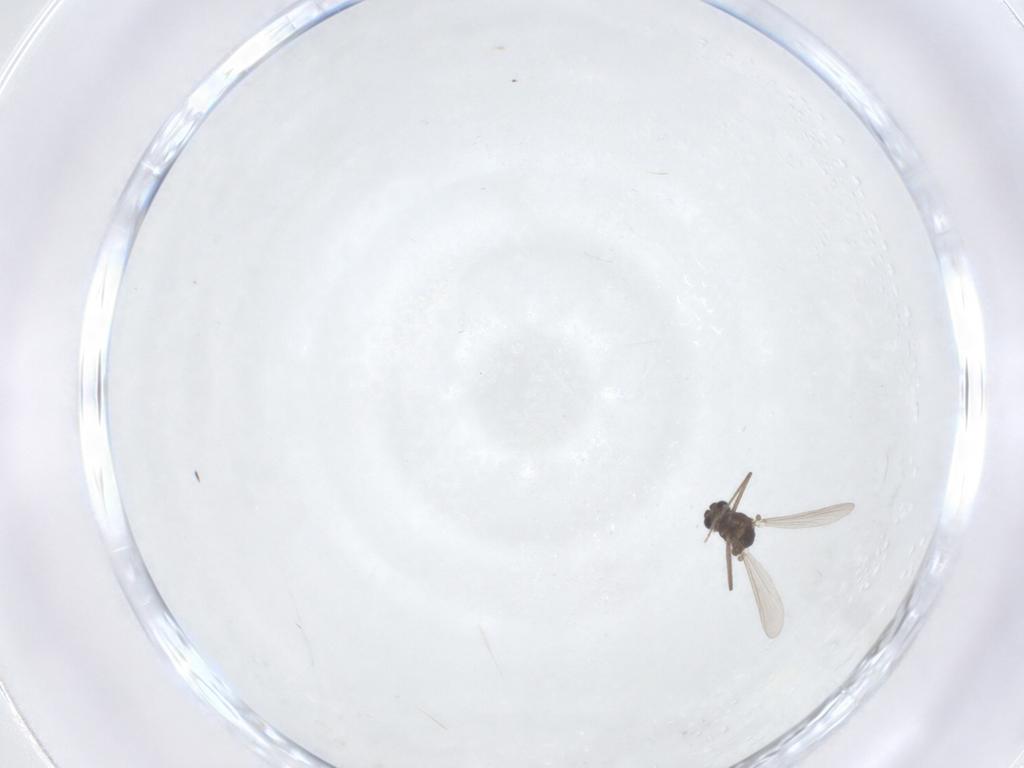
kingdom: Animalia
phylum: Arthropoda
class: Insecta
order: Diptera
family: Chironomidae
